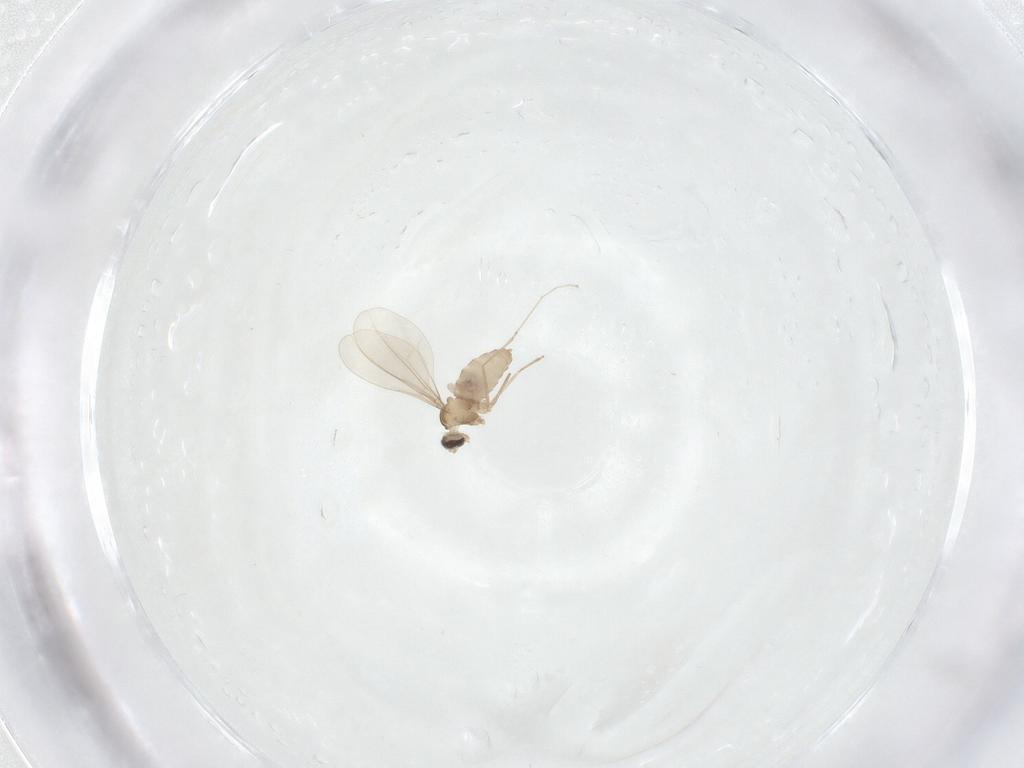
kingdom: Animalia
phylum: Arthropoda
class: Insecta
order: Diptera
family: Cecidomyiidae
